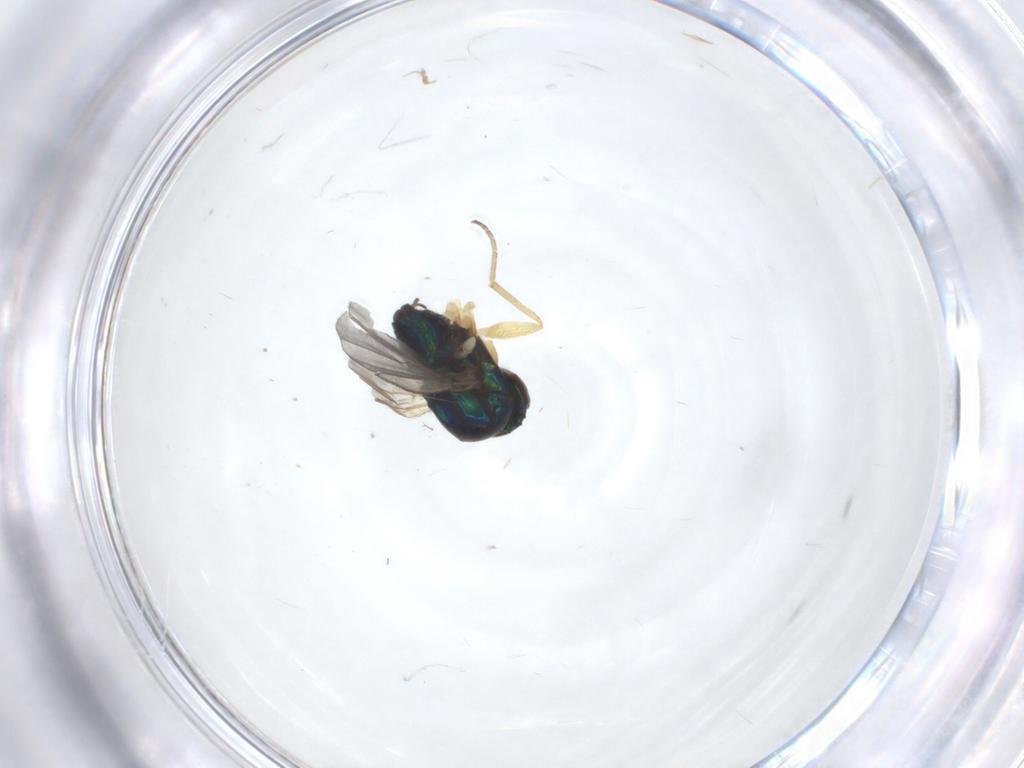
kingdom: Animalia
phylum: Arthropoda
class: Insecta
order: Diptera
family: Dolichopodidae
